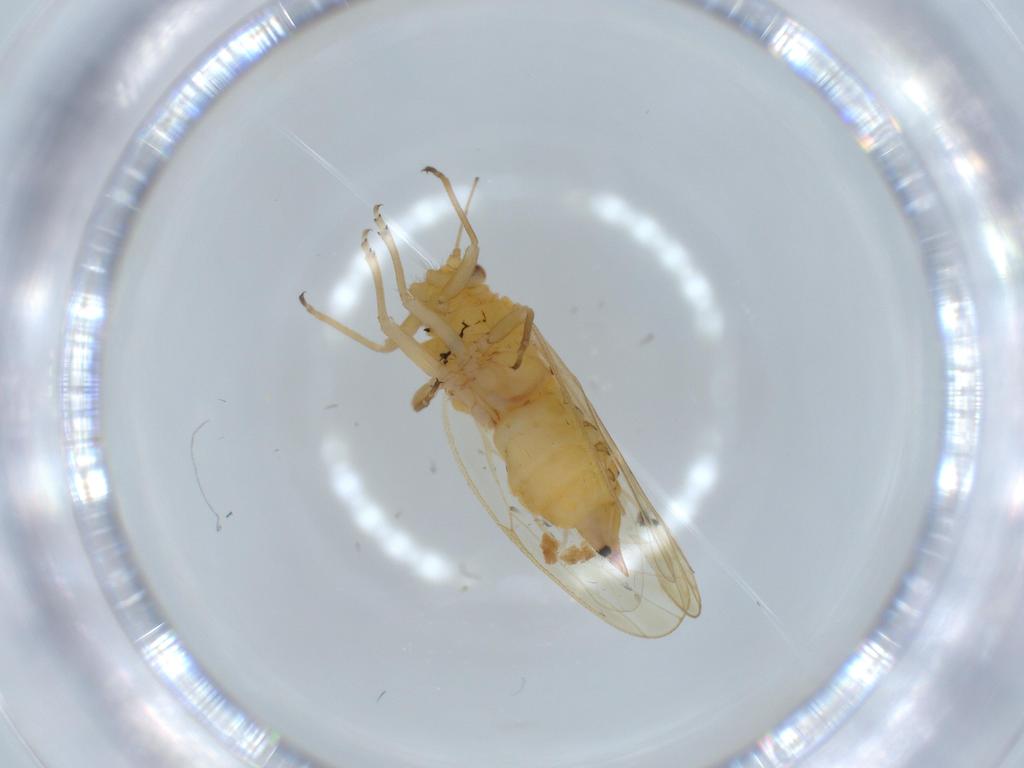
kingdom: Animalia
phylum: Arthropoda
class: Insecta
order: Hemiptera
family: Psyllidae
